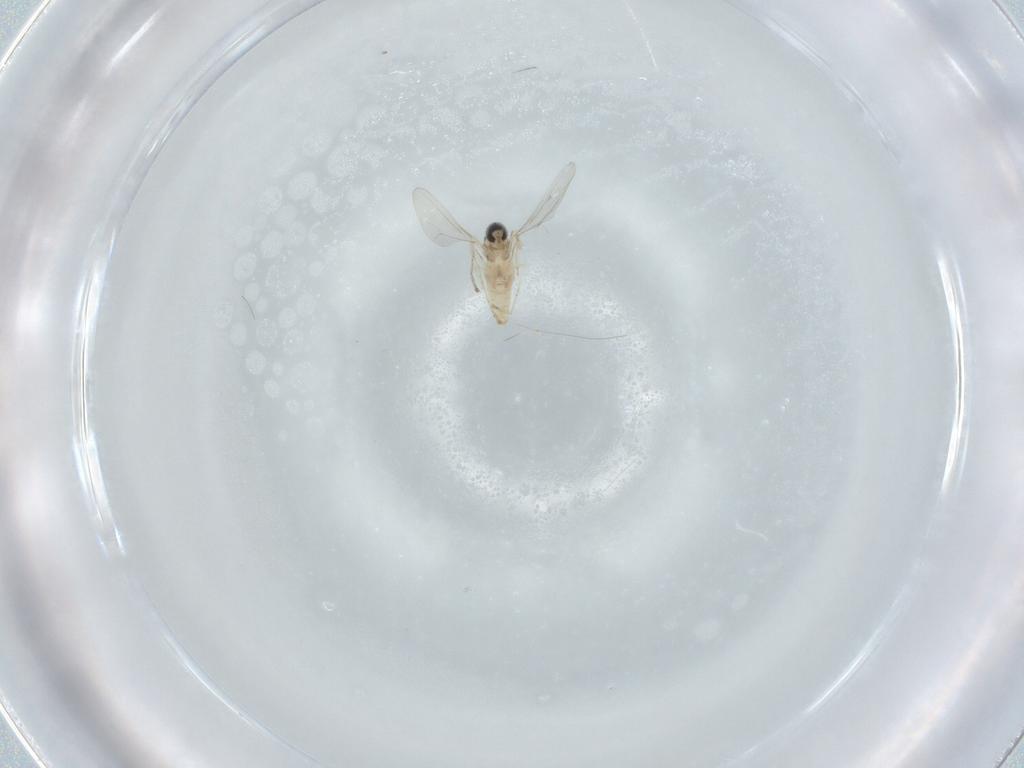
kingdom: Animalia
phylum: Arthropoda
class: Insecta
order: Diptera
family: Cecidomyiidae
